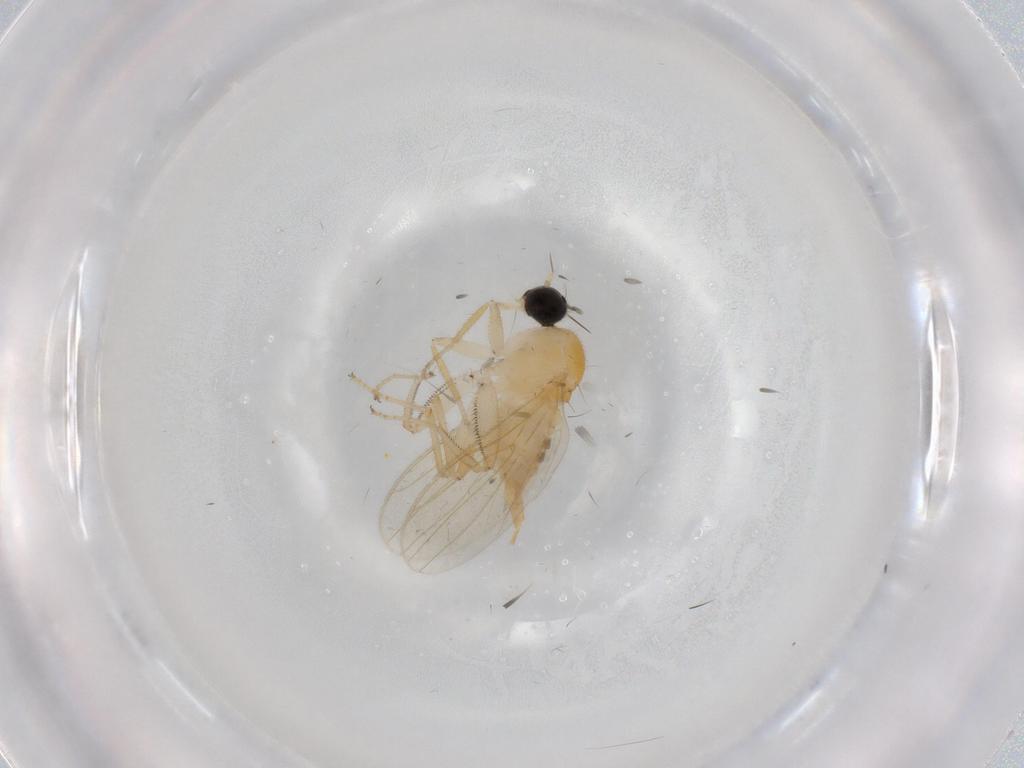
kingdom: Animalia
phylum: Arthropoda
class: Insecta
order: Diptera
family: Hybotidae
